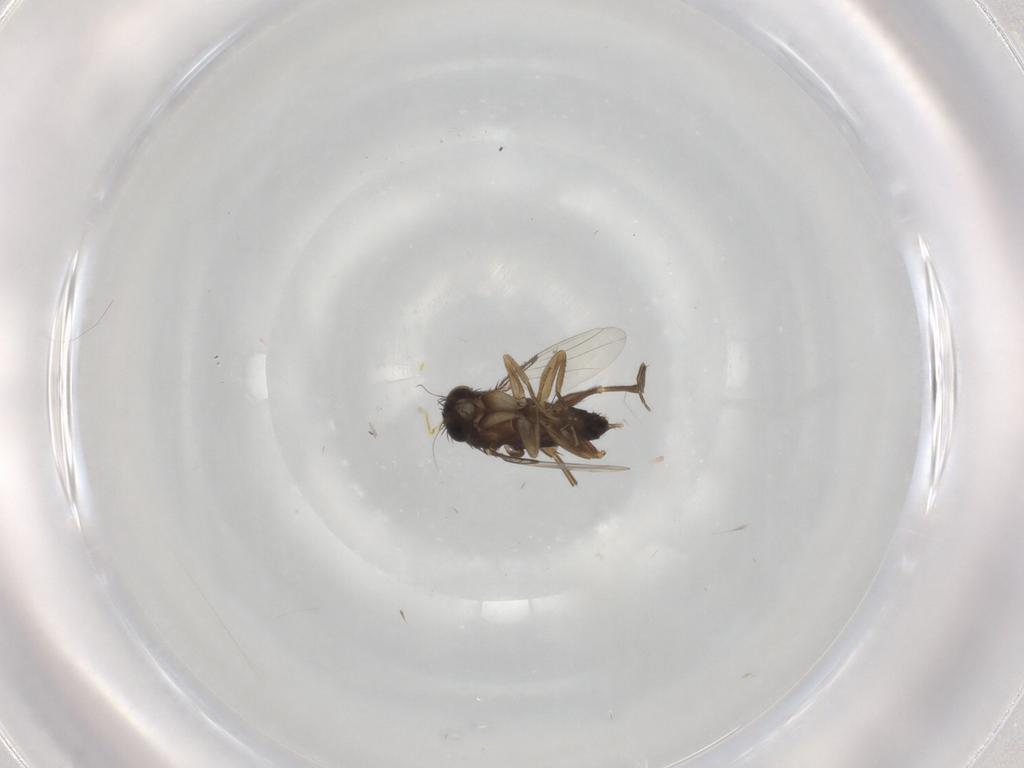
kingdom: Animalia
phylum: Arthropoda
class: Insecta
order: Diptera
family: Phoridae
